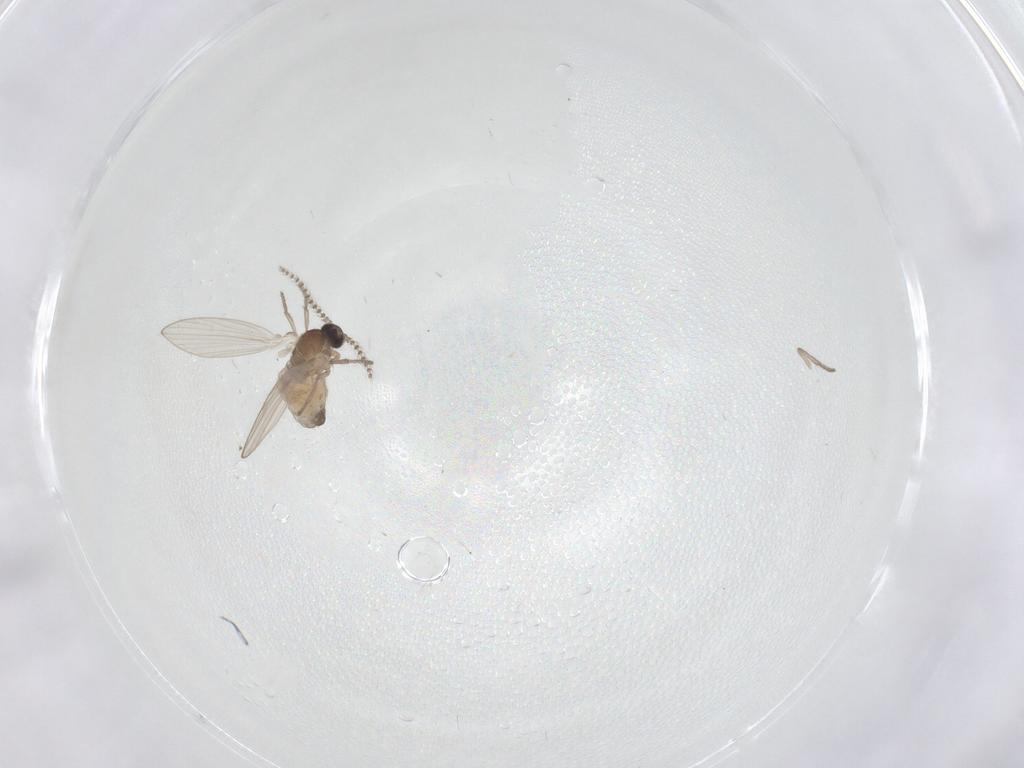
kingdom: Animalia
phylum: Arthropoda
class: Insecta
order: Diptera
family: Psychodidae
